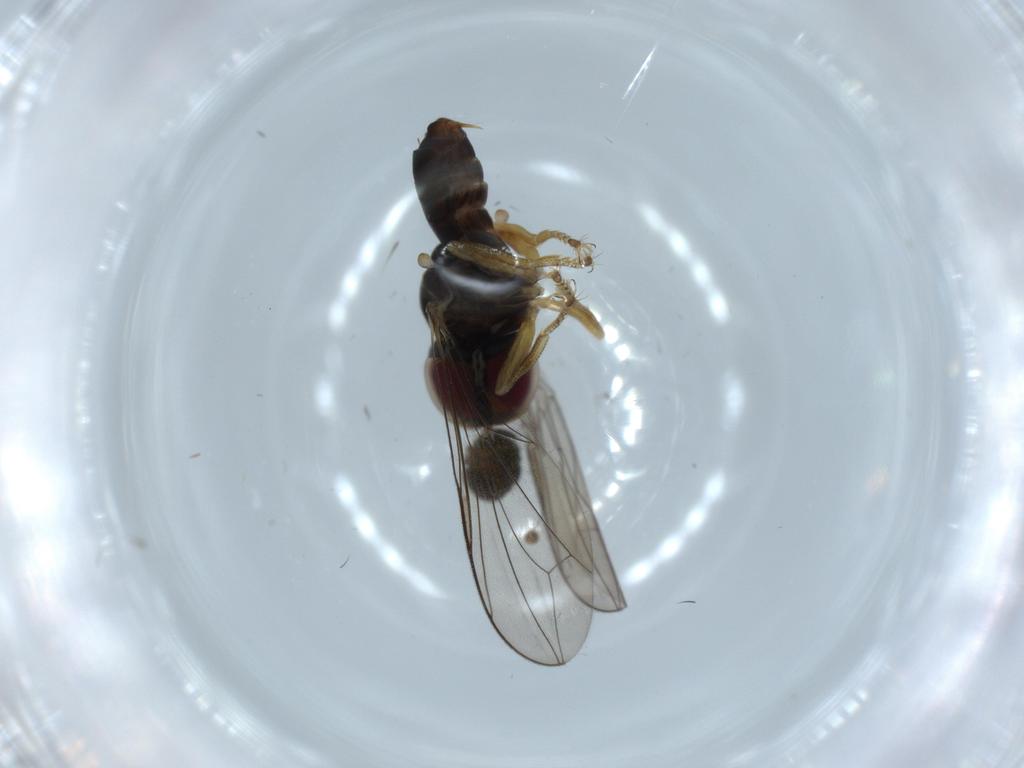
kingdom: Animalia
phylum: Arthropoda
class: Insecta
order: Diptera
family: Pipunculidae
